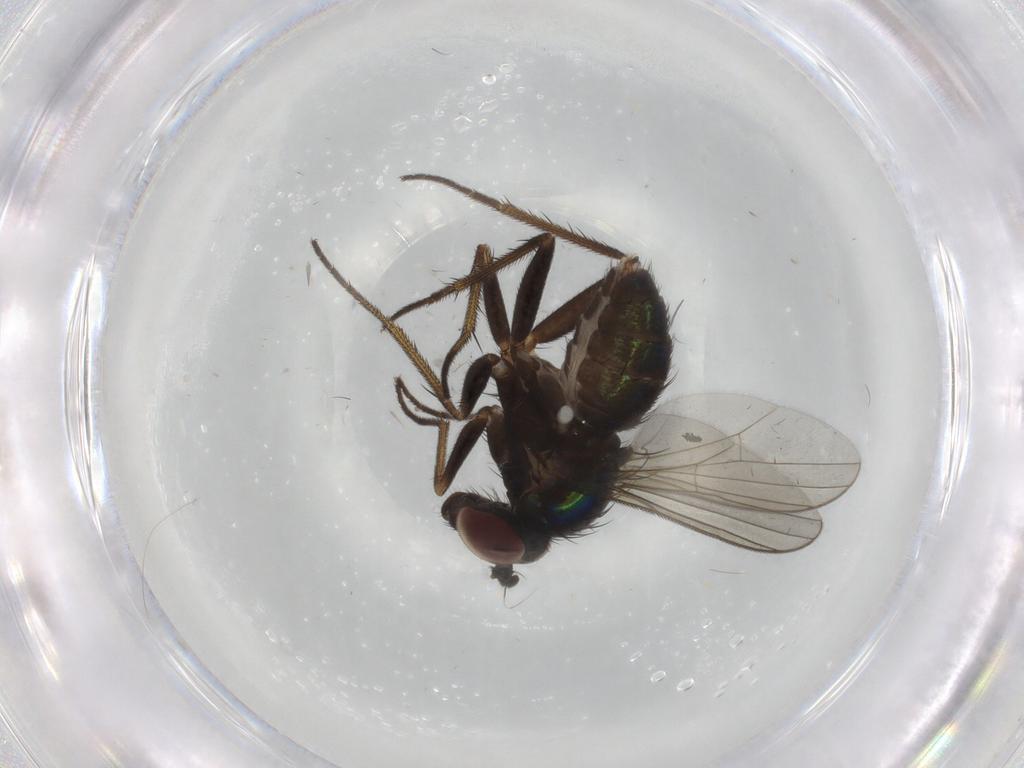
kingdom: Animalia
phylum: Arthropoda
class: Insecta
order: Diptera
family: Dolichopodidae
